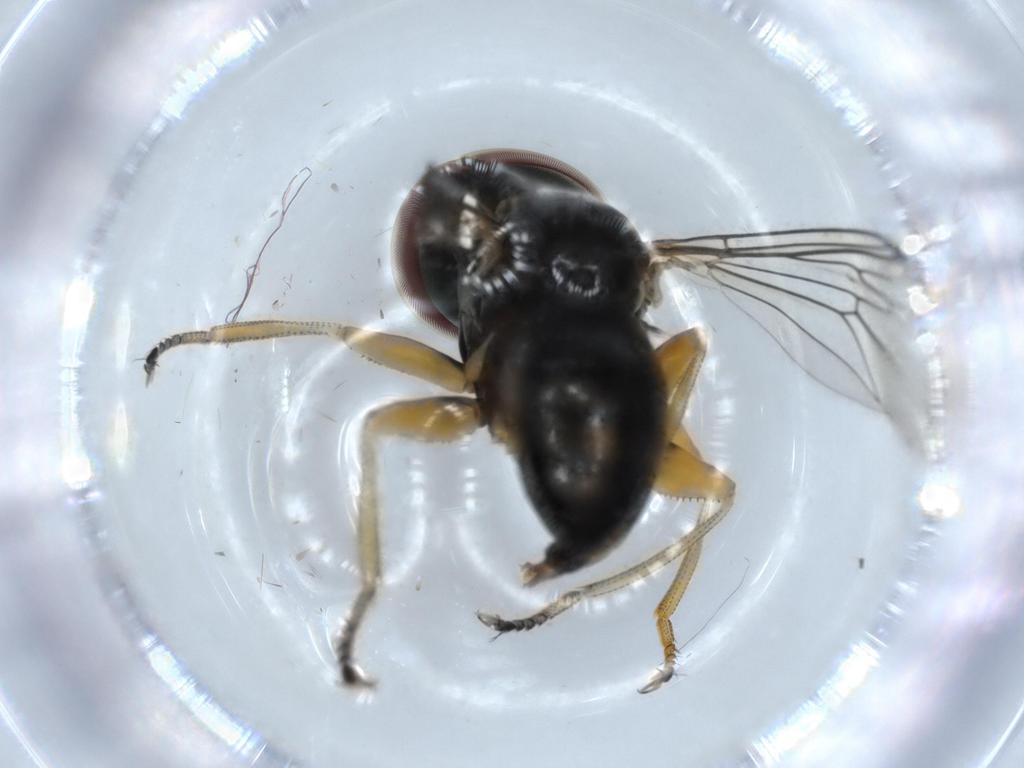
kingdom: Animalia
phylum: Arthropoda
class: Insecta
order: Diptera
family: Pipunculidae
